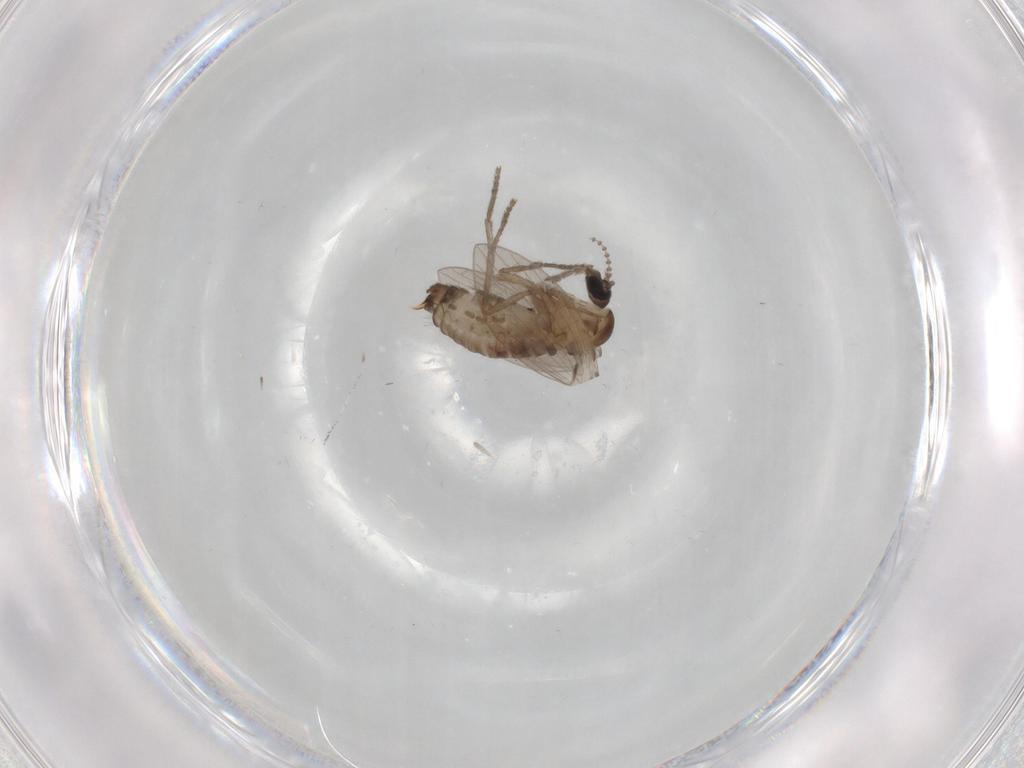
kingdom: Animalia
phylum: Arthropoda
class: Insecta
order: Diptera
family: Psychodidae
